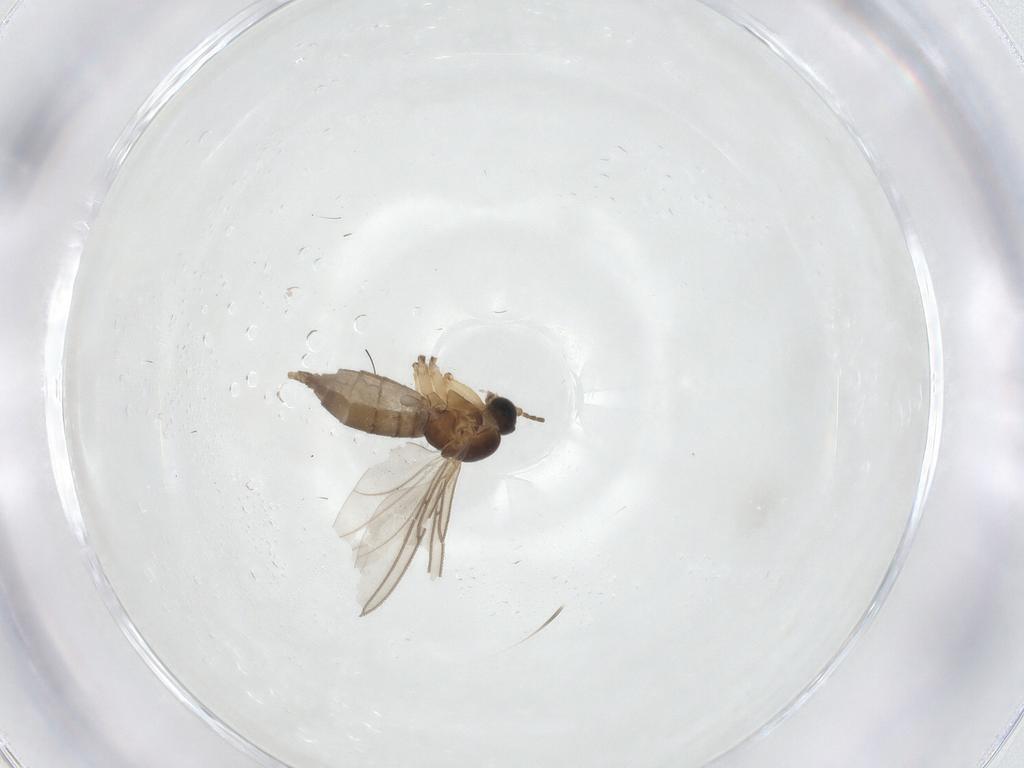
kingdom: Animalia
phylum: Arthropoda
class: Insecta
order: Diptera
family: Sciaridae
